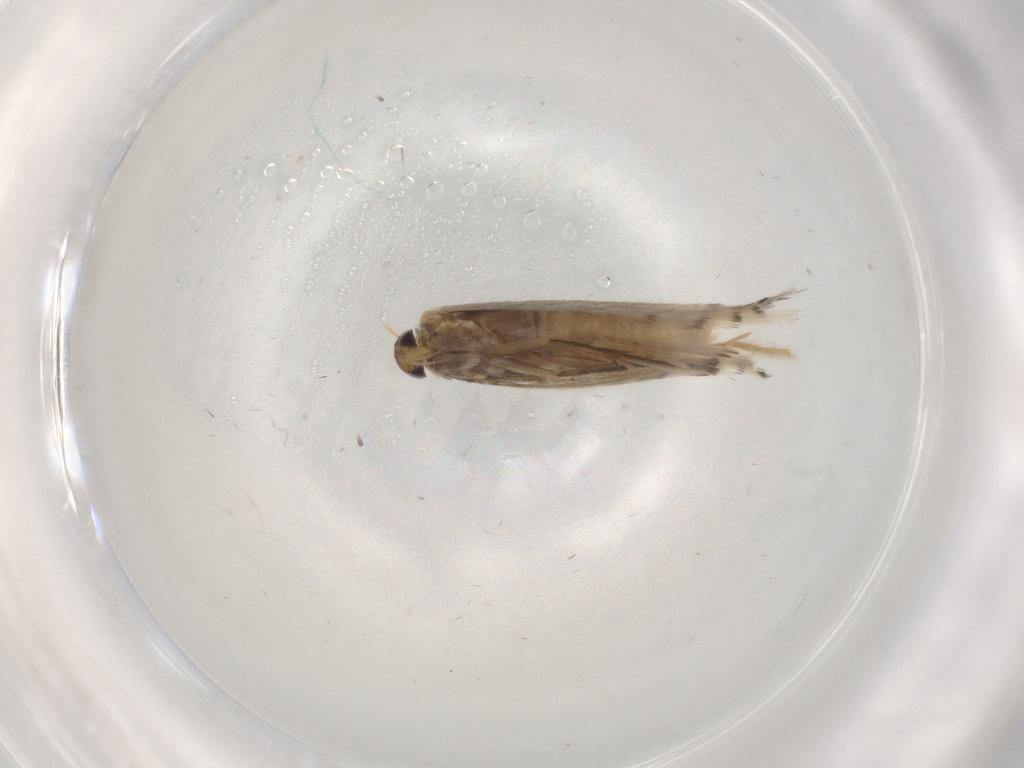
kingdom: Animalia
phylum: Arthropoda
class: Insecta
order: Lepidoptera
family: Gracillariidae
